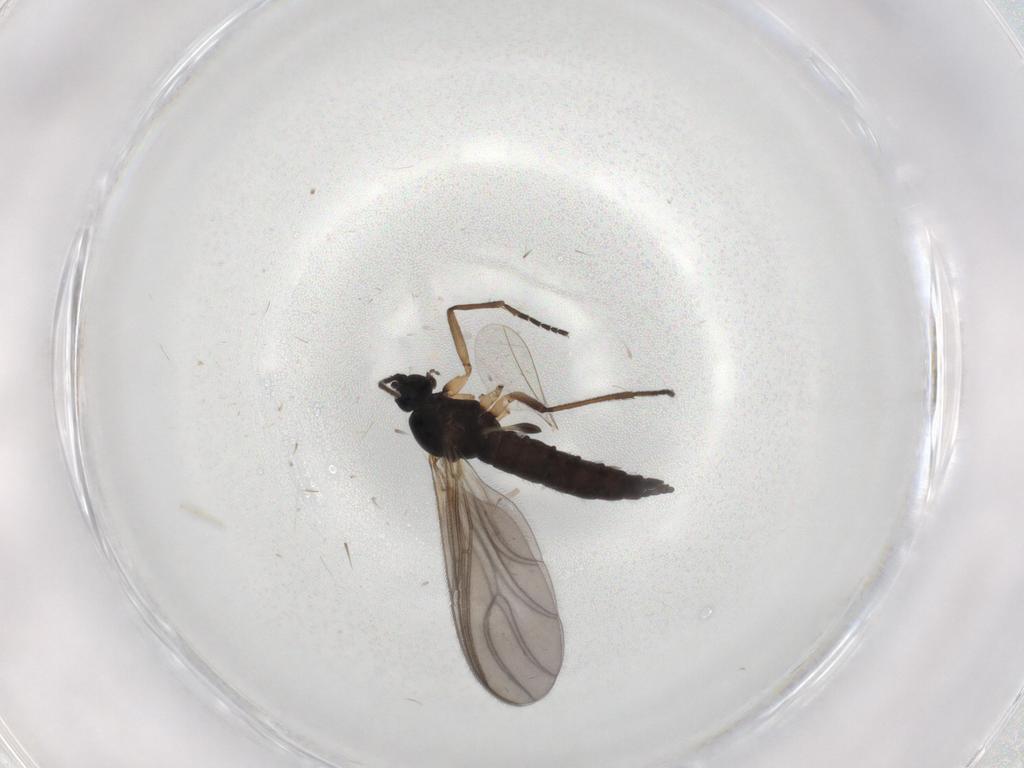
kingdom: Animalia
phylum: Arthropoda
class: Insecta
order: Diptera
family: Sciaridae
